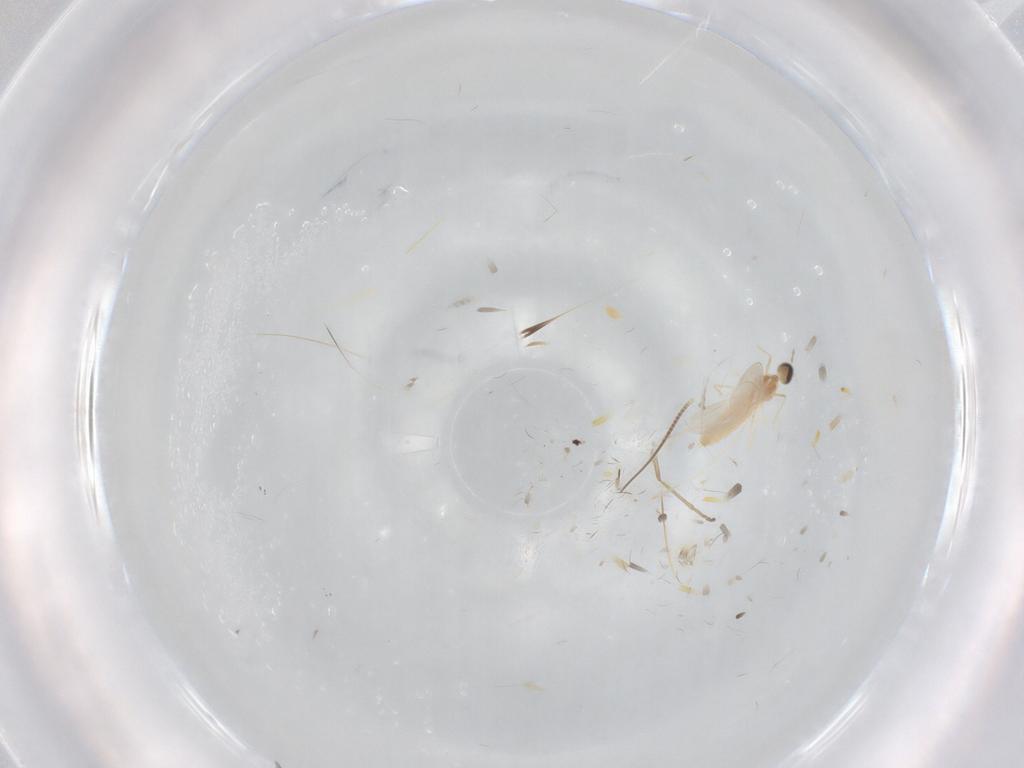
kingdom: Animalia
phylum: Arthropoda
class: Insecta
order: Diptera
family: Cecidomyiidae
